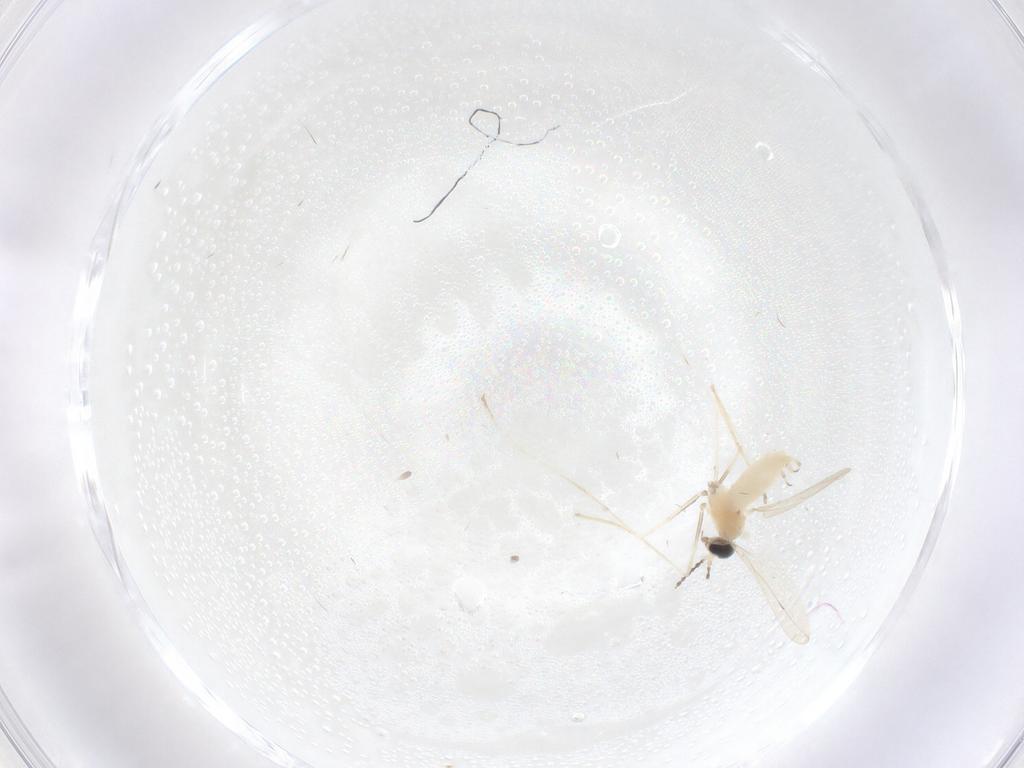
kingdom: Animalia
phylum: Arthropoda
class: Insecta
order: Diptera
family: Cecidomyiidae
